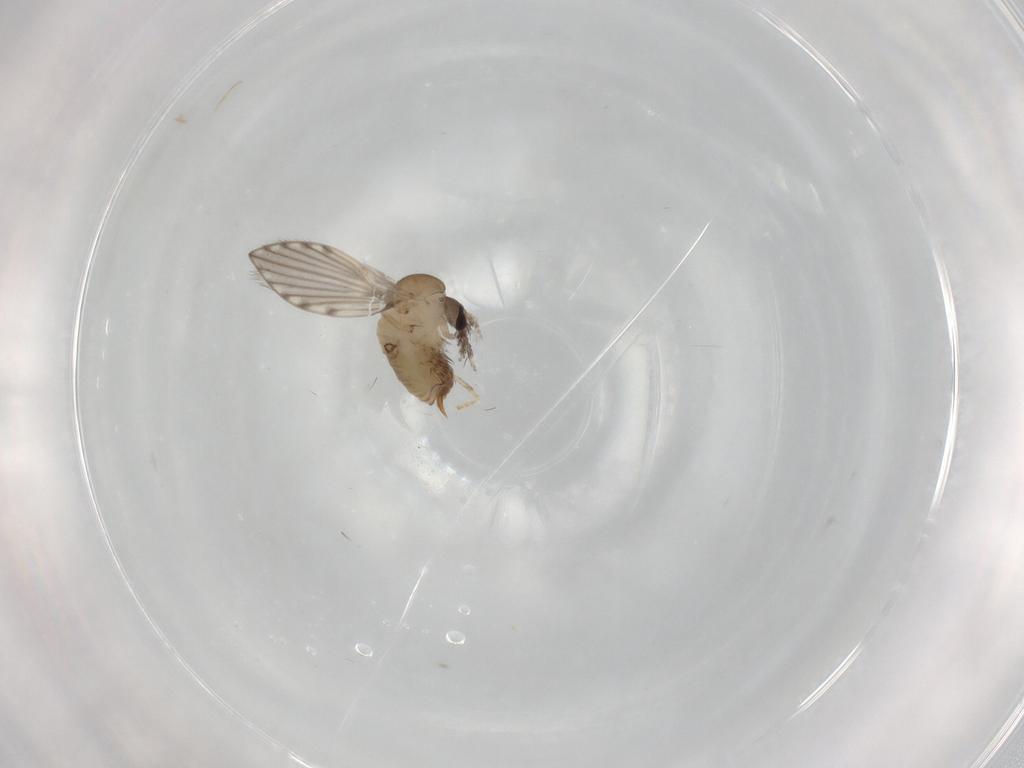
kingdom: Animalia
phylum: Arthropoda
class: Insecta
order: Diptera
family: Psychodidae
